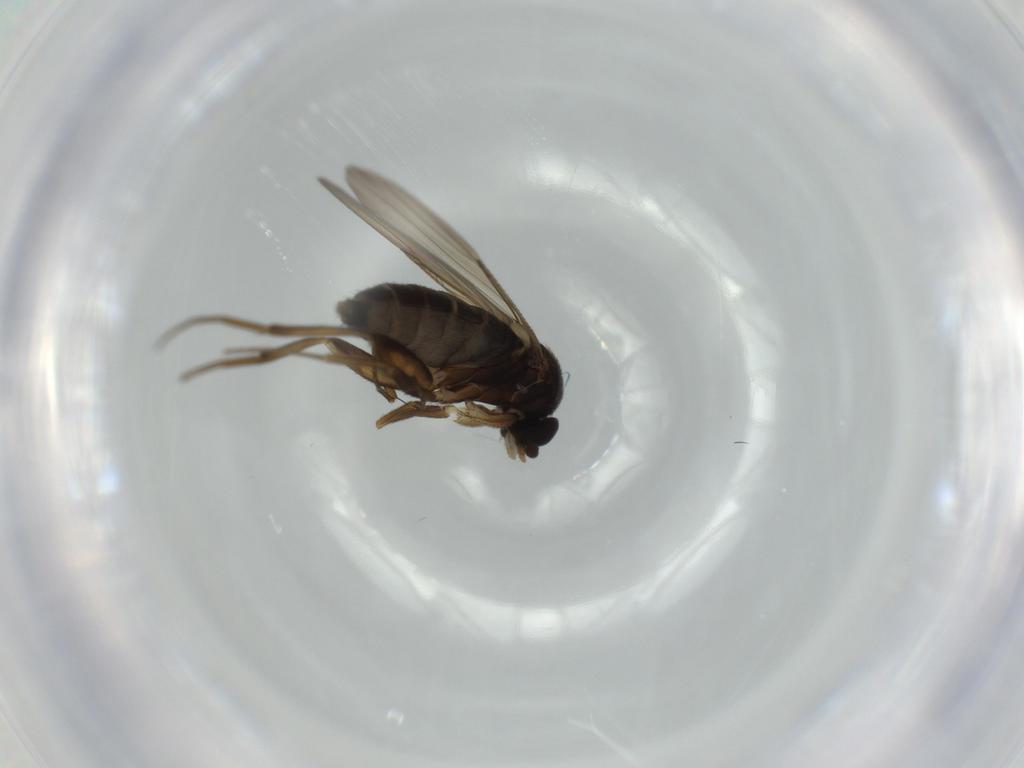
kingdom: Animalia
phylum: Arthropoda
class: Insecta
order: Diptera
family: Phoridae
